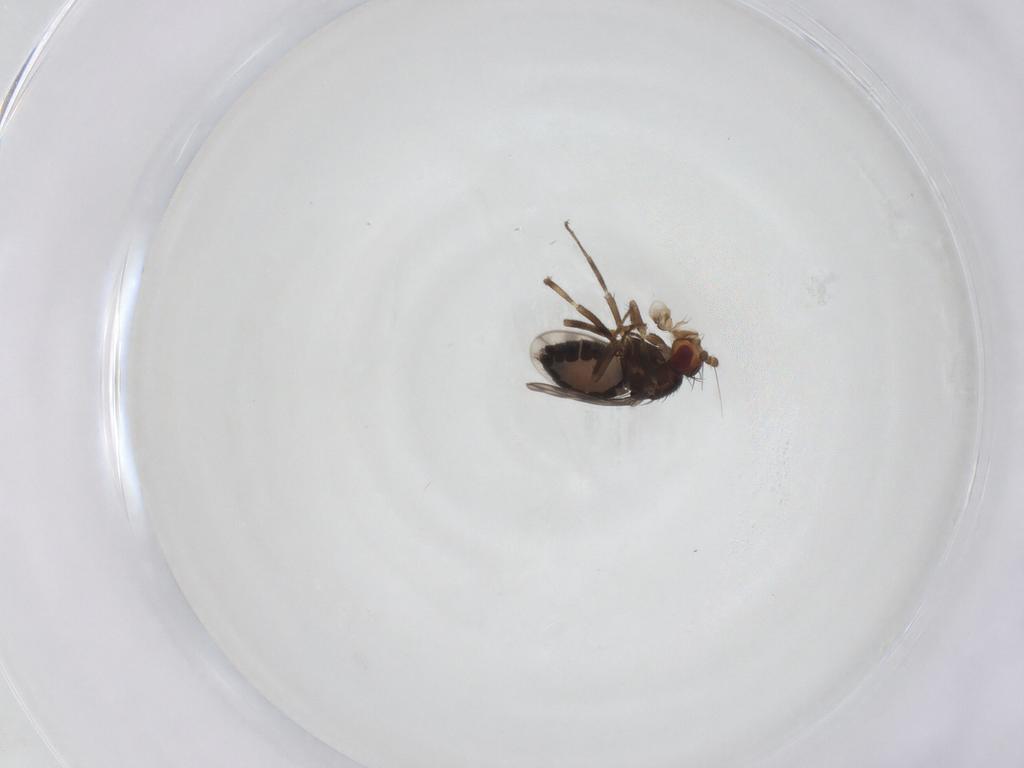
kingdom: Animalia
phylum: Arthropoda
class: Insecta
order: Diptera
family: Sphaeroceridae
